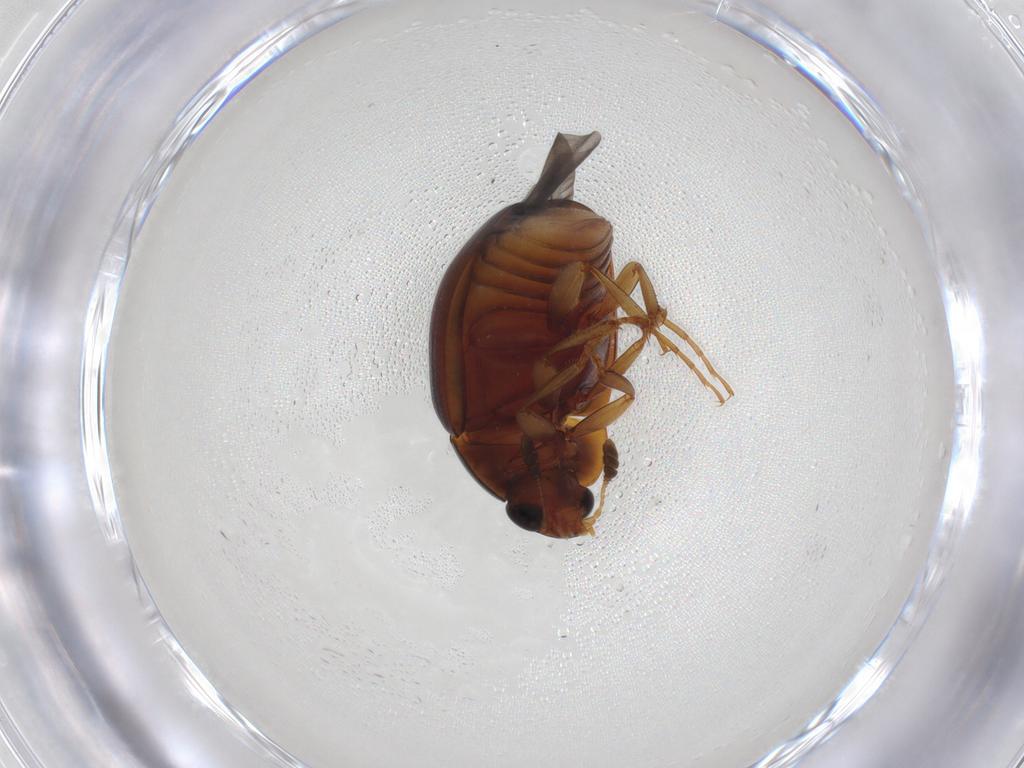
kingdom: Animalia
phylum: Arthropoda
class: Insecta
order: Coleoptera
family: Nitidulidae
